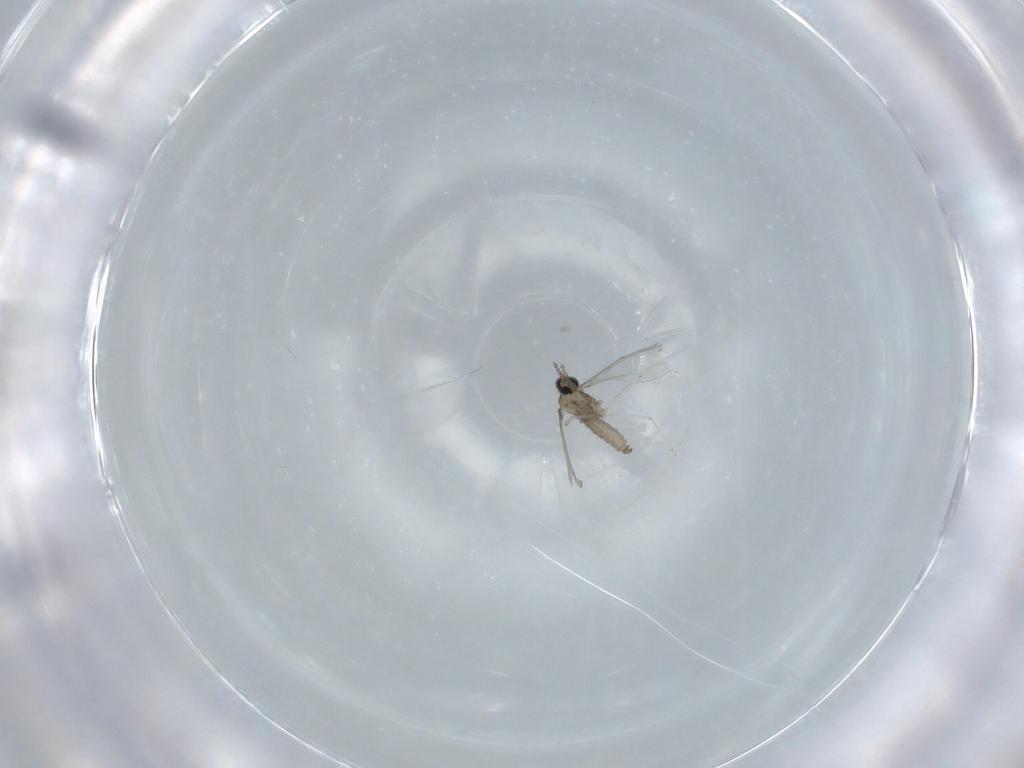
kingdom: Animalia
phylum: Arthropoda
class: Insecta
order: Diptera
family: Cecidomyiidae
